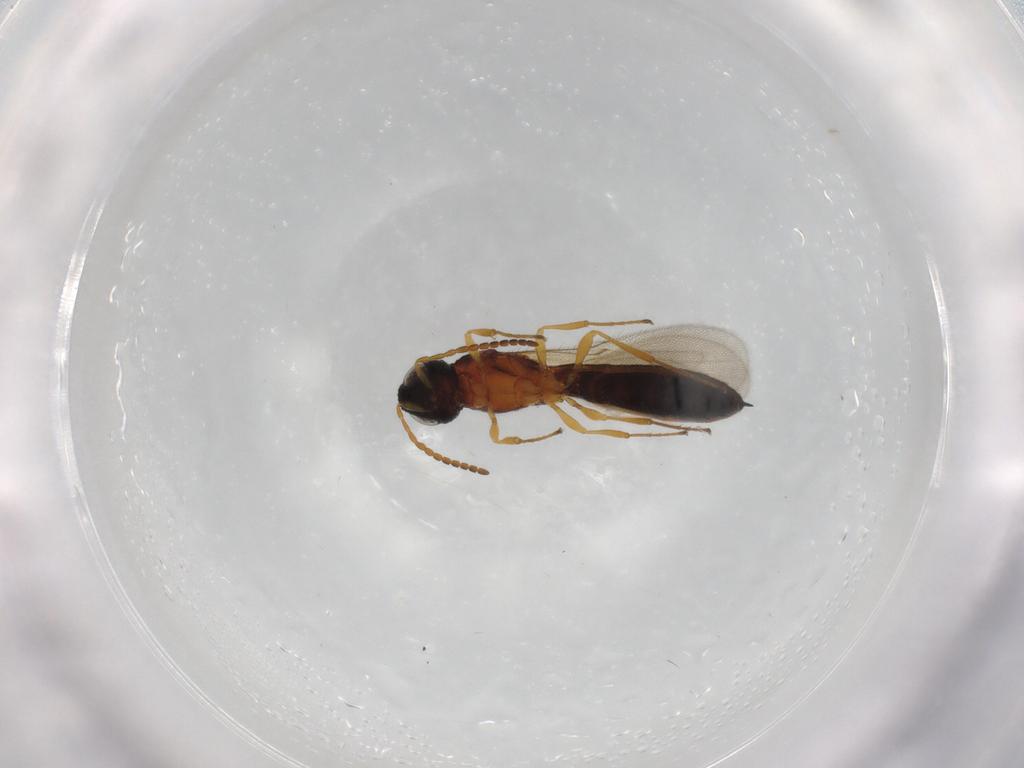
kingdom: Animalia
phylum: Arthropoda
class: Insecta
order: Hymenoptera
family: Scelionidae
